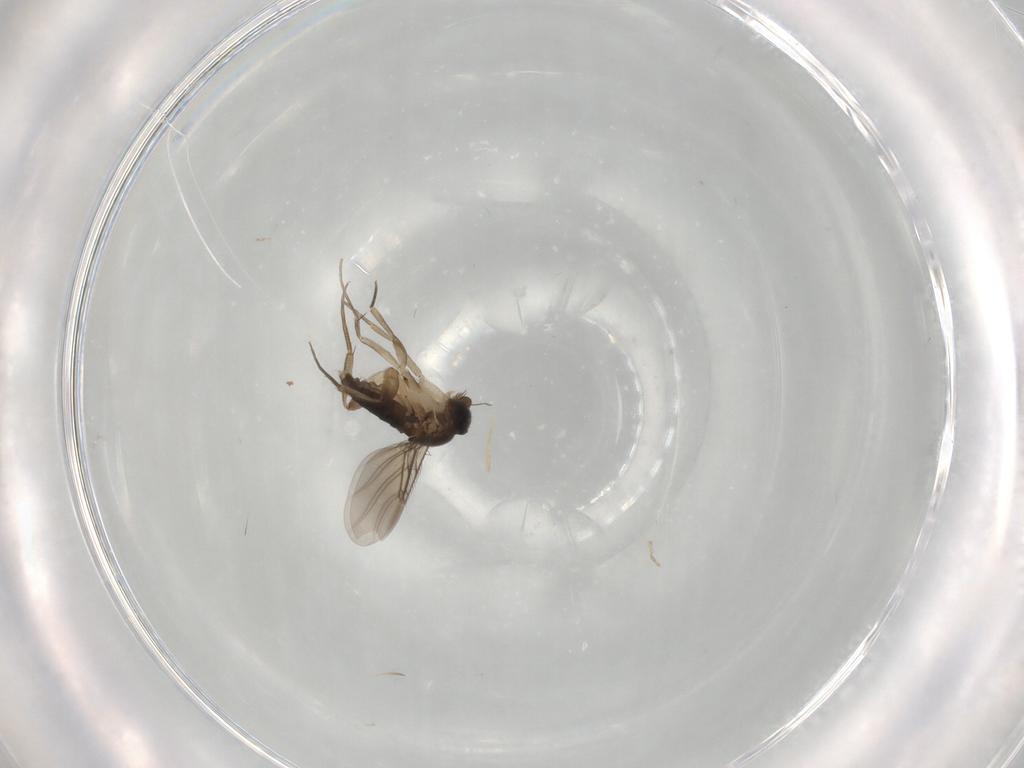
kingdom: Animalia
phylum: Arthropoda
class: Insecta
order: Diptera
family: Phoridae
